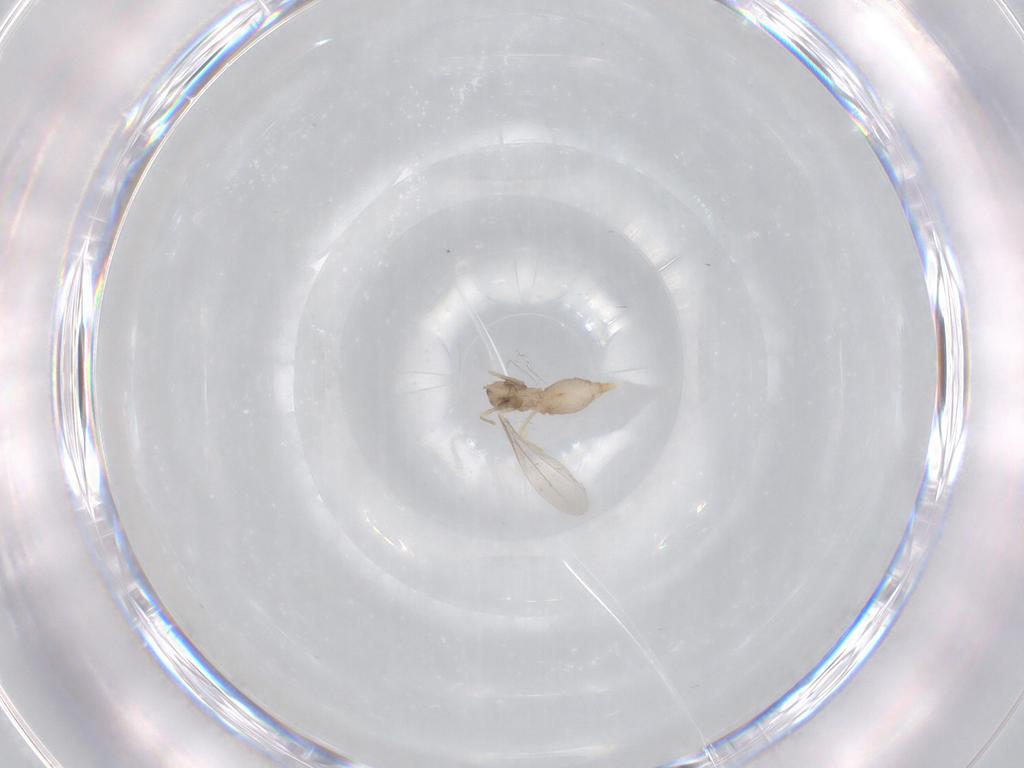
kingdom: Animalia
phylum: Arthropoda
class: Insecta
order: Diptera
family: Cecidomyiidae
